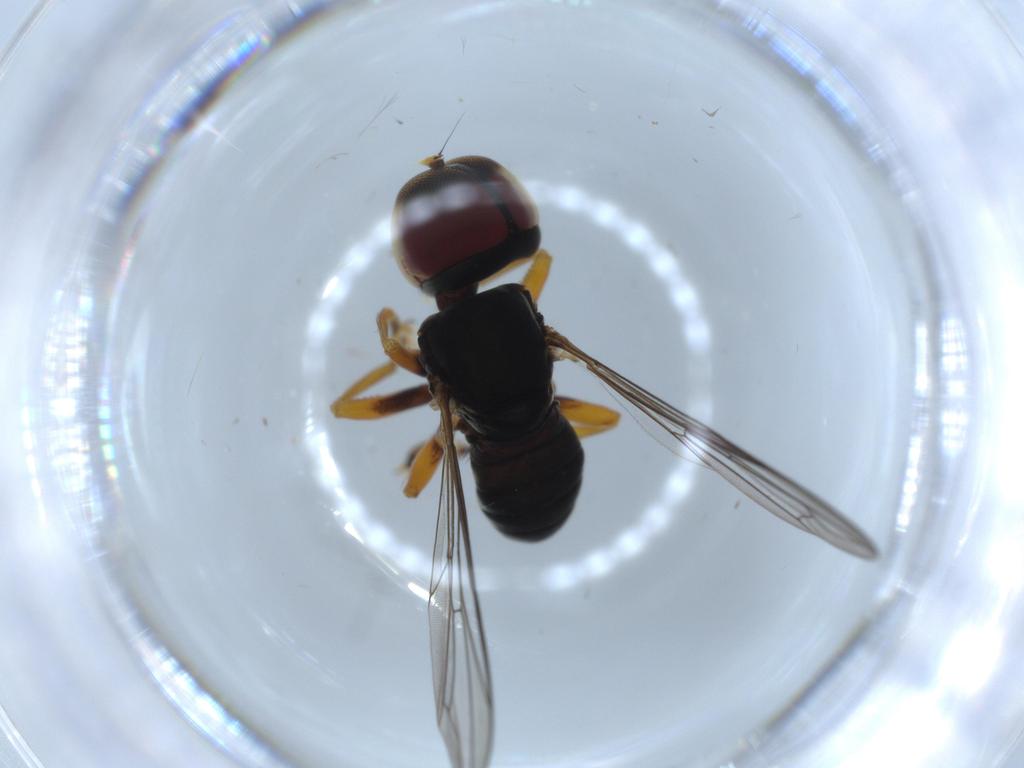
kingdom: Animalia
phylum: Arthropoda
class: Insecta
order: Diptera
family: Pipunculidae
